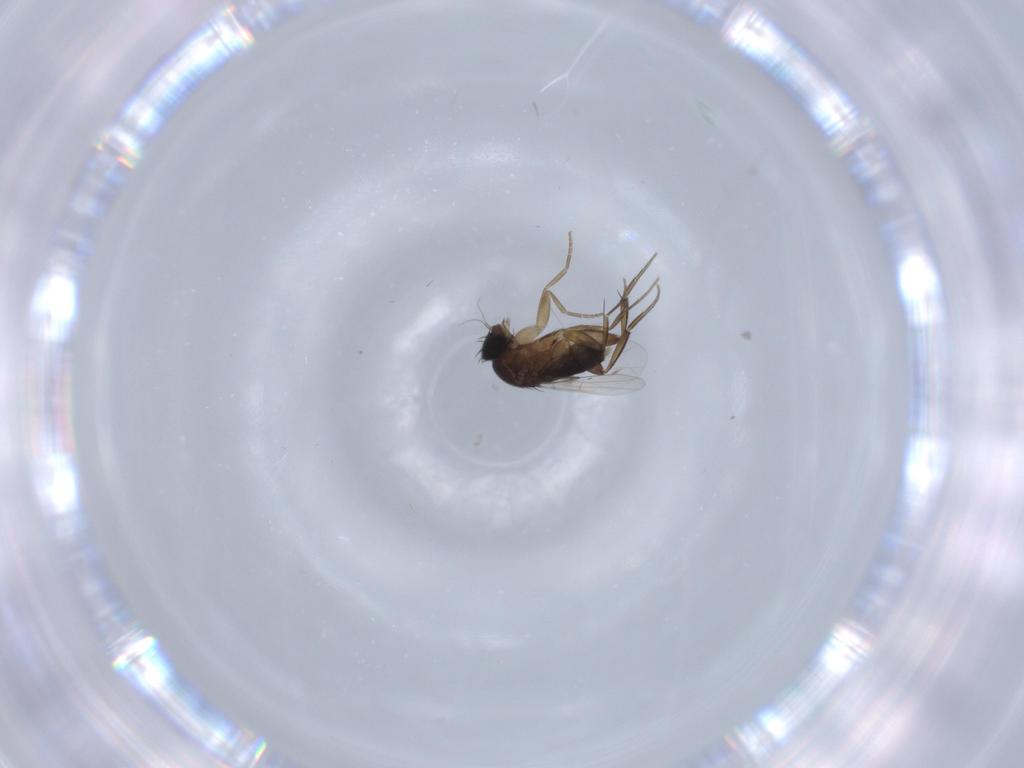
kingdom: Animalia
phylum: Arthropoda
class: Insecta
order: Diptera
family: Phoridae
